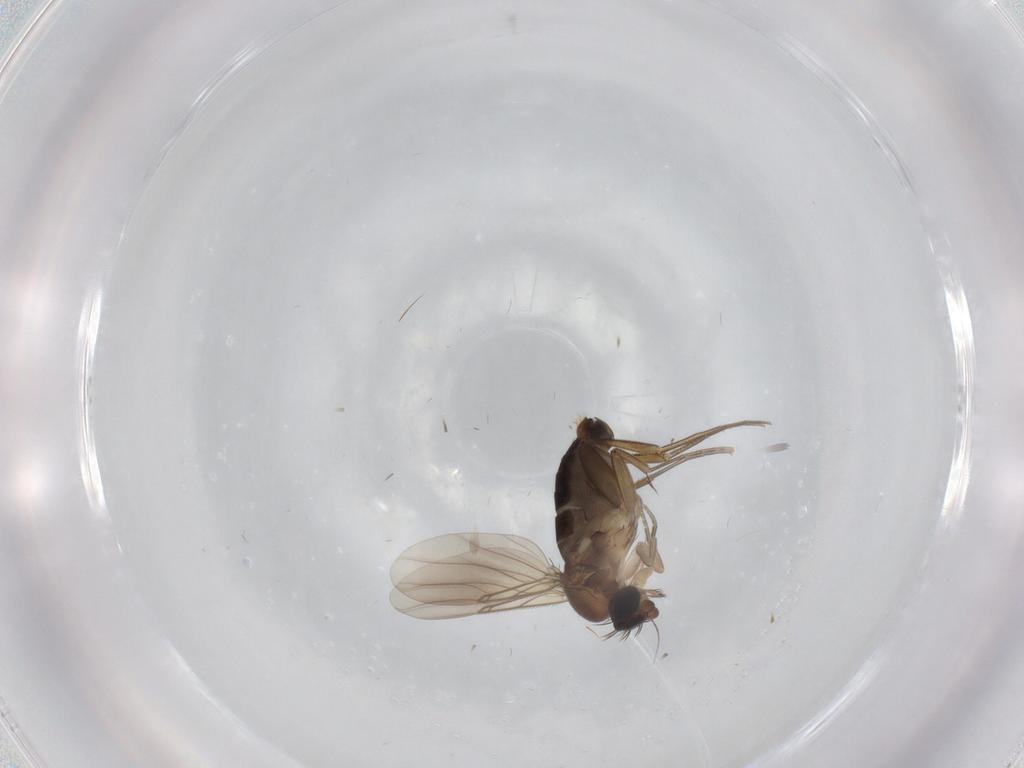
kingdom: Animalia
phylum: Arthropoda
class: Insecta
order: Diptera
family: Phoridae
